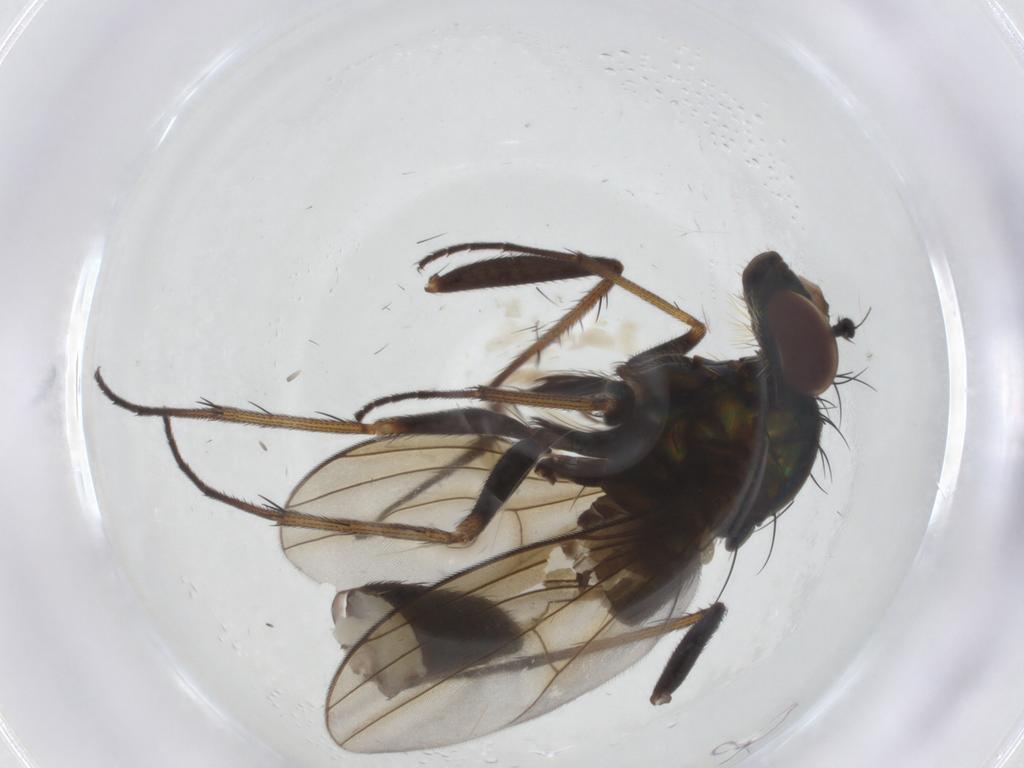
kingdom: Animalia
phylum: Arthropoda
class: Insecta
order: Diptera
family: Dolichopodidae
